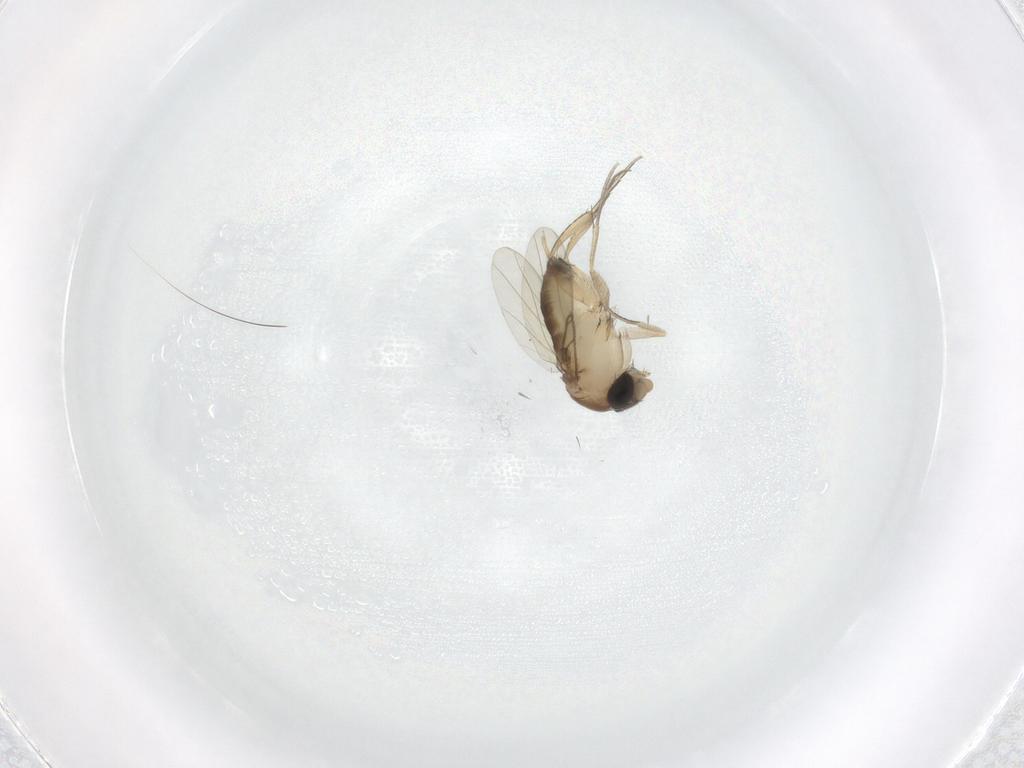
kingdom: Animalia
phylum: Arthropoda
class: Insecta
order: Diptera
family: Phoridae
